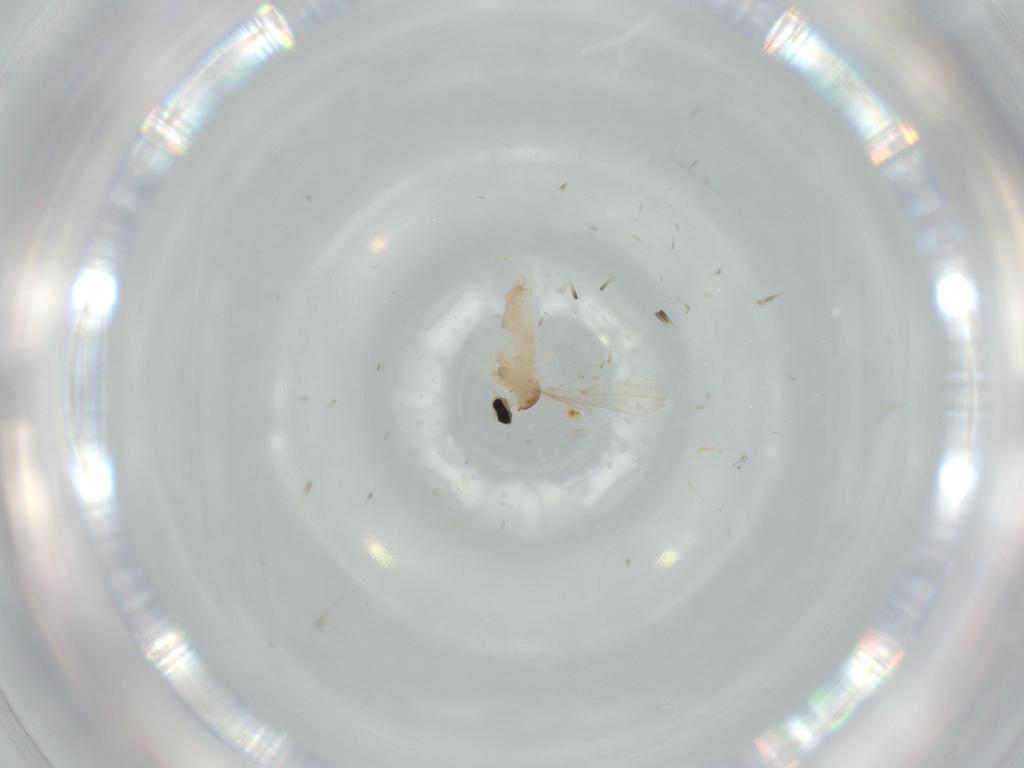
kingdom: Animalia
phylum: Arthropoda
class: Insecta
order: Diptera
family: Cecidomyiidae
